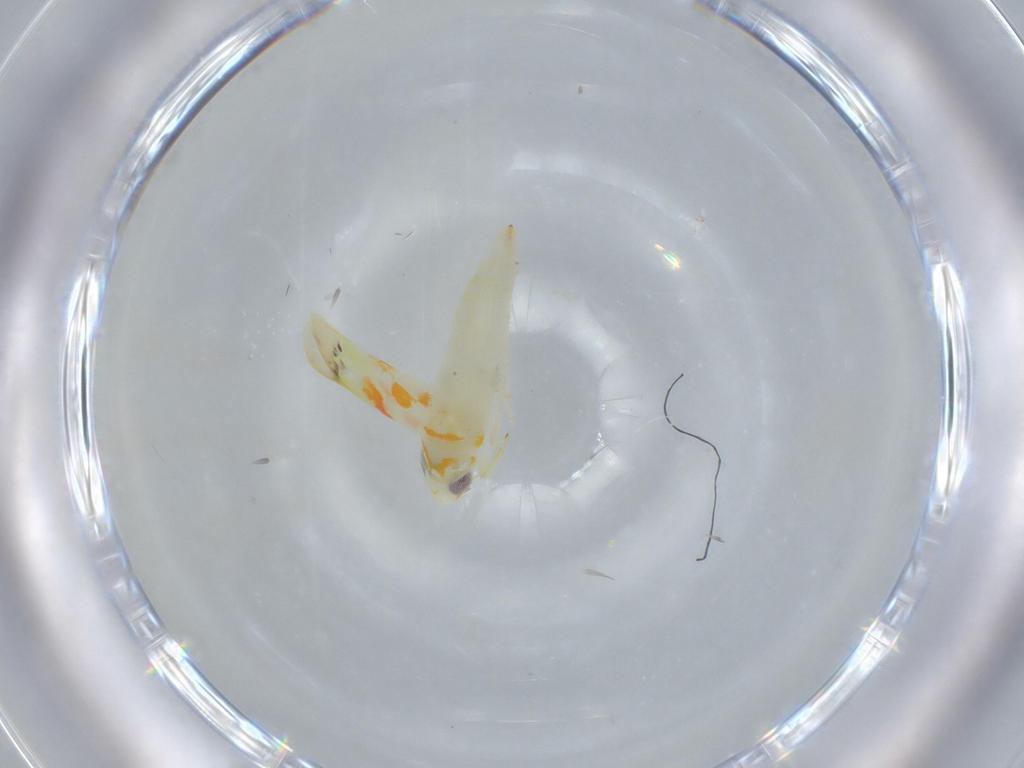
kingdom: Animalia
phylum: Arthropoda
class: Insecta
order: Hemiptera
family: Cicadellidae
